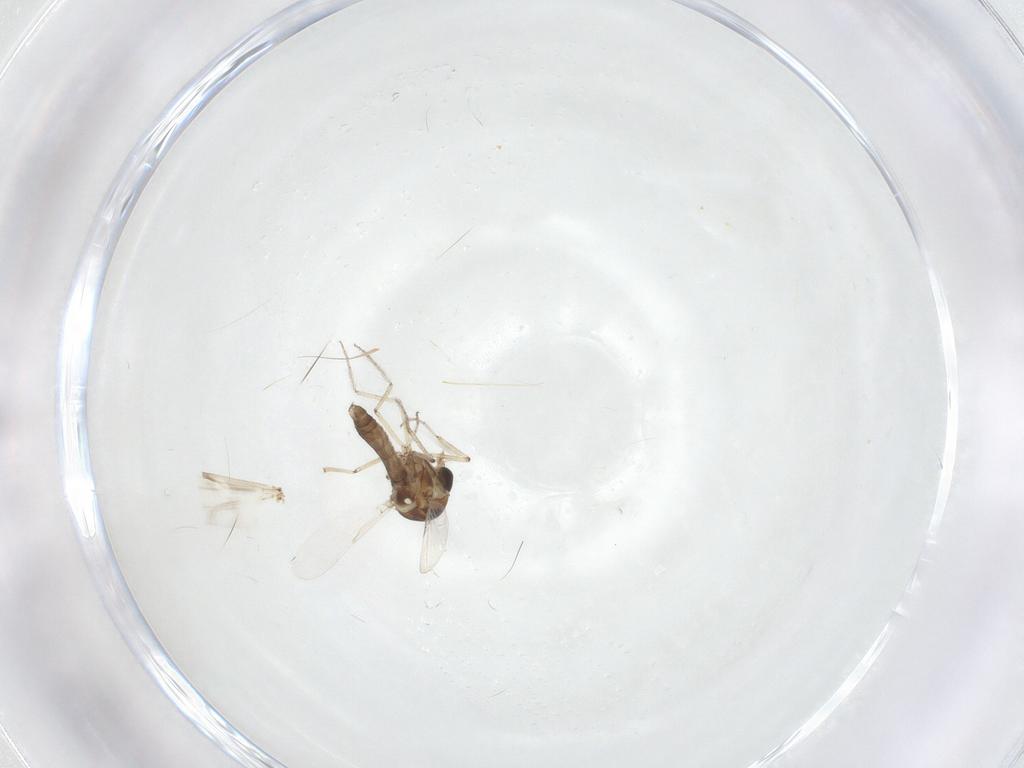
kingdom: Animalia
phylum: Arthropoda
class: Insecta
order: Diptera
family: Ceratopogonidae
